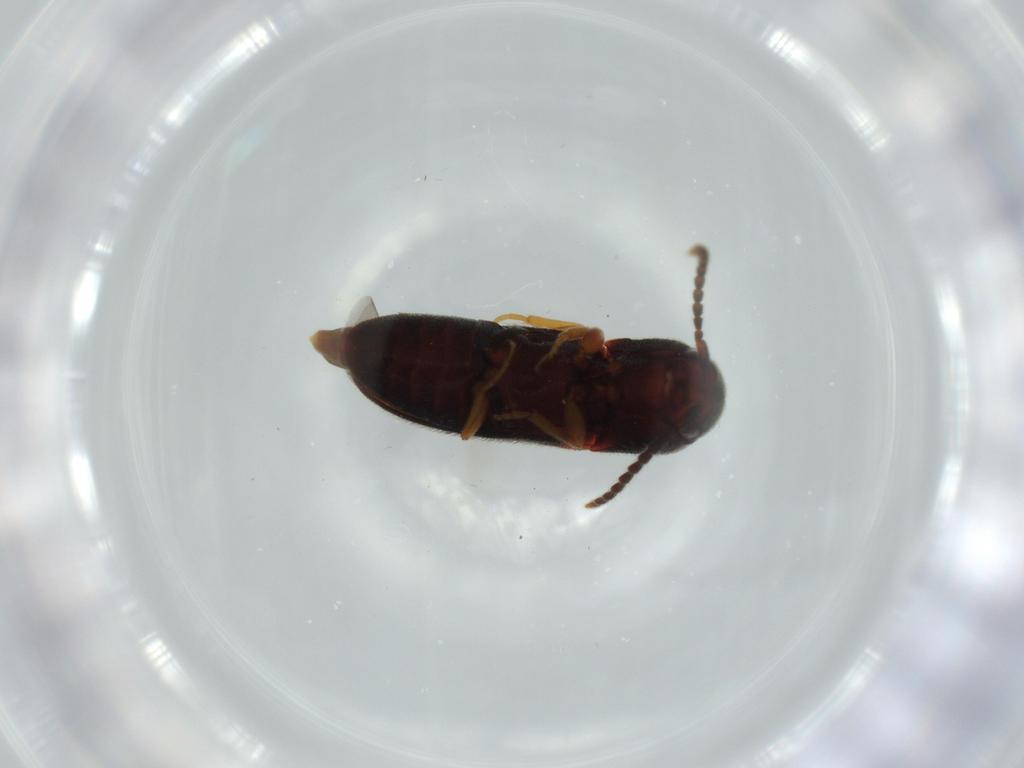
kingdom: Animalia
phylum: Arthropoda
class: Insecta
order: Coleoptera
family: Eucnemidae
